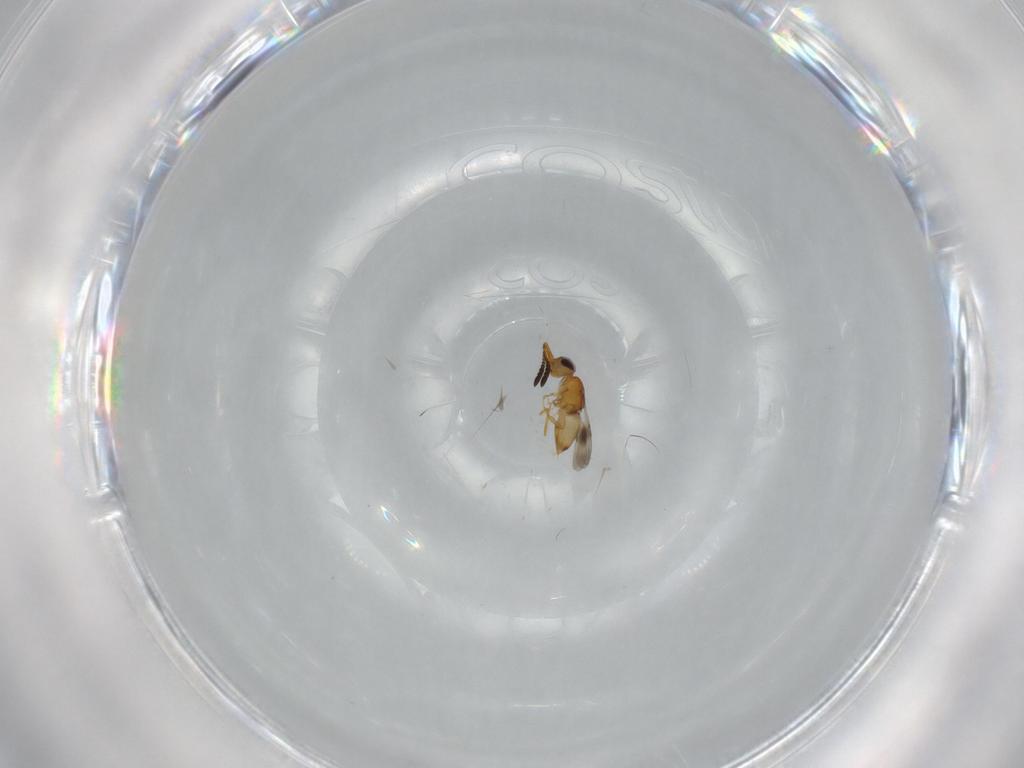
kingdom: Animalia
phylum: Arthropoda
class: Insecta
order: Hymenoptera
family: Ceraphronidae
